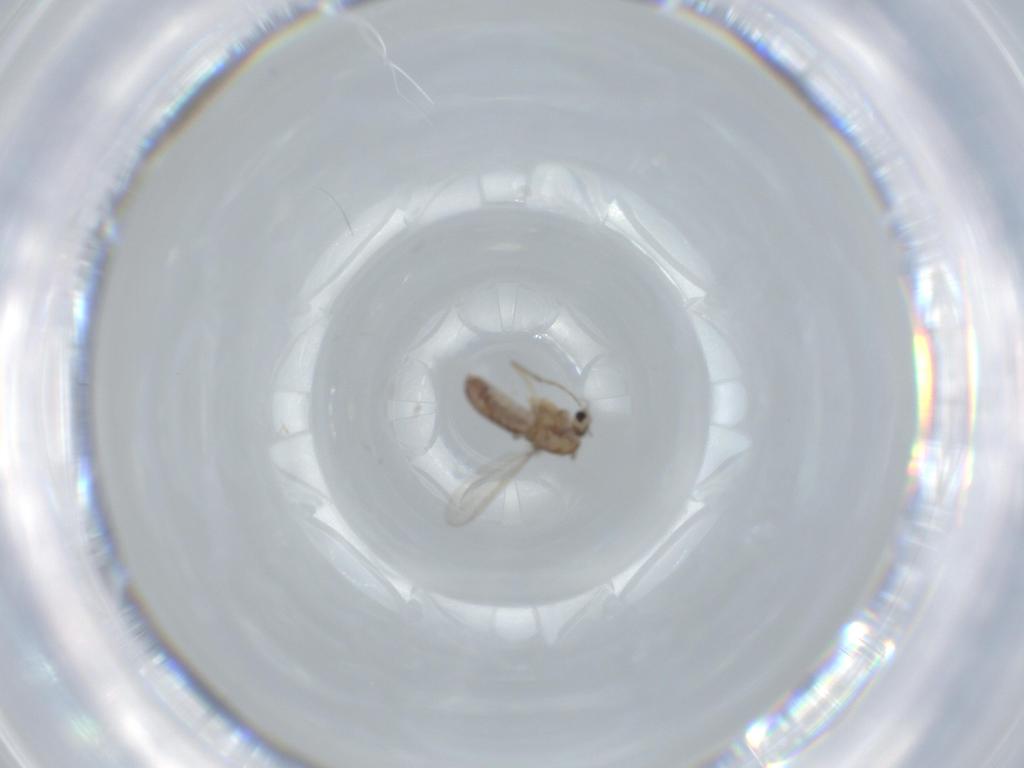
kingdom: Animalia
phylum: Arthropoda
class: Insecta
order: Diptera
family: Chironomidae
